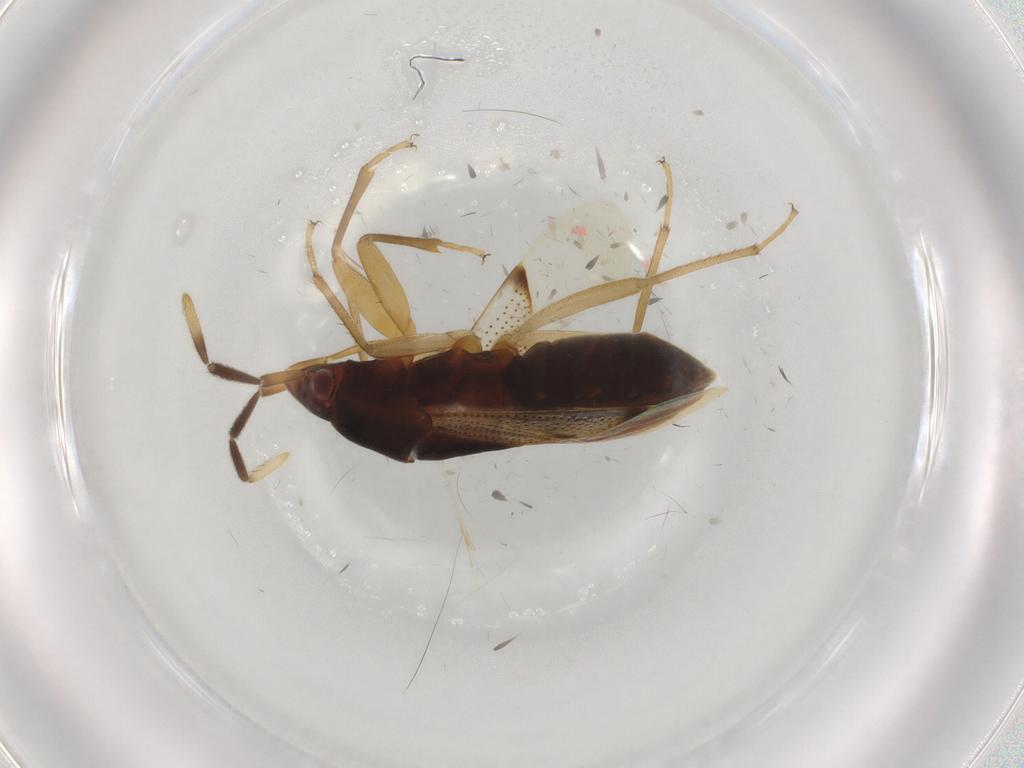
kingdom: Animalia
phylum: Arthropoda
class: Insecta
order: Hemiptera
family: Rhyparochromidae
